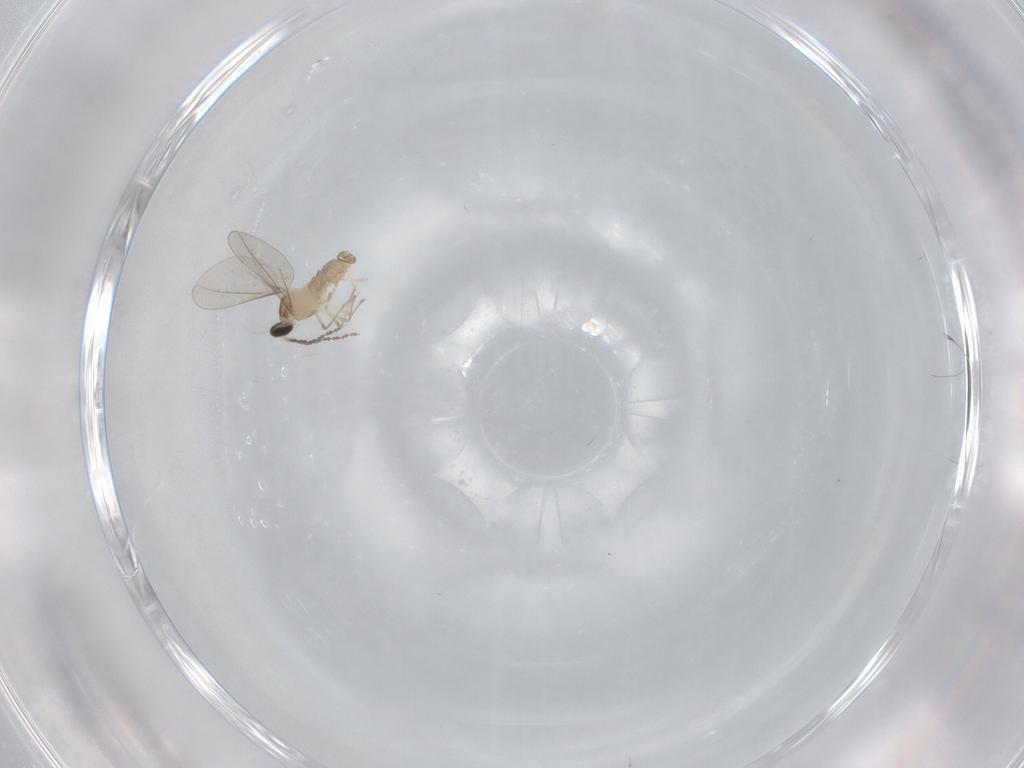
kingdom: Animalia
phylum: Arthropoda
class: Insecta
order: Diptera
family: Cecidomyiidae
